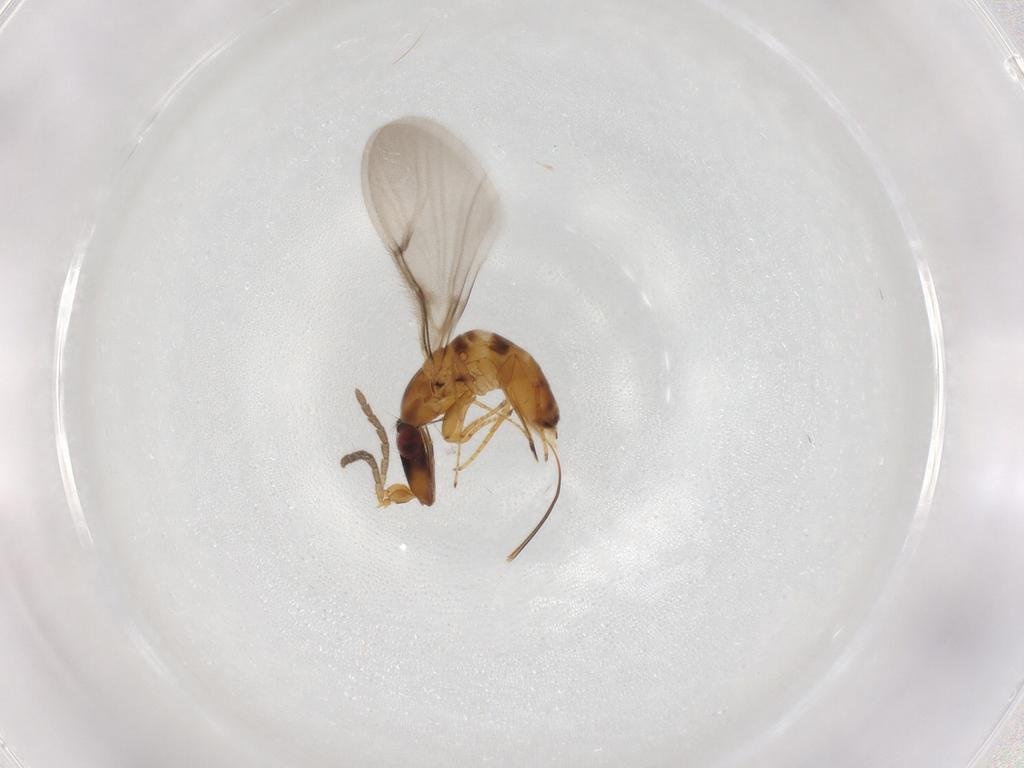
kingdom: Animalia
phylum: Arthropoda
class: Insecta
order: Hymenoptera
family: Agaonidae
